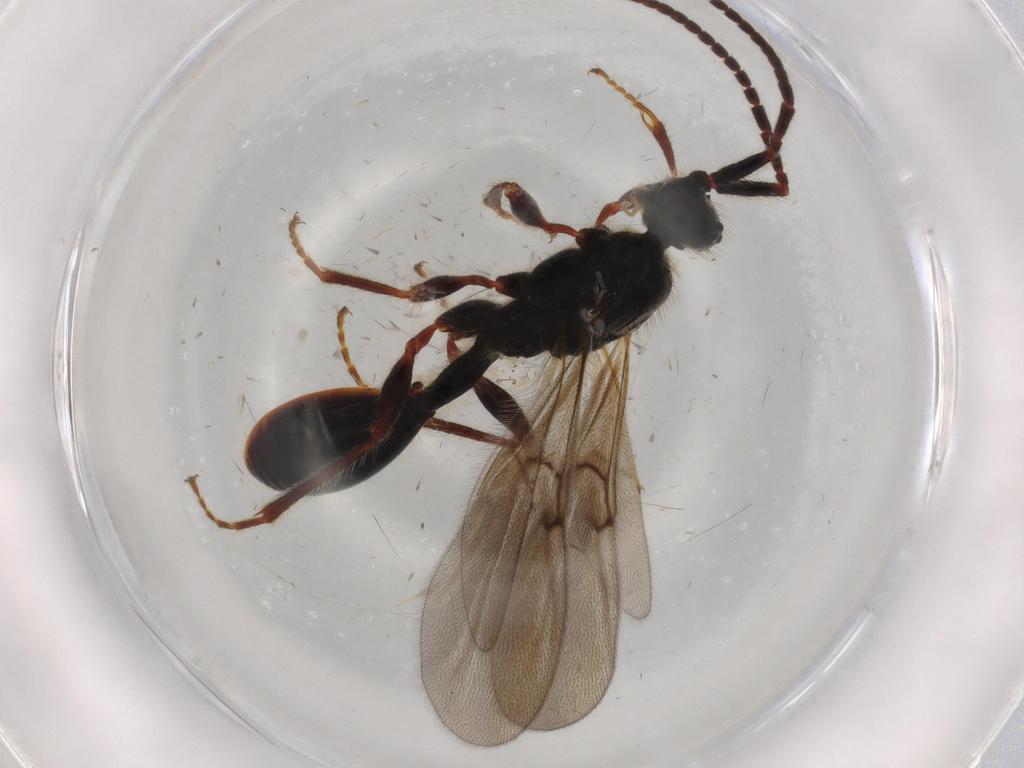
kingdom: Animalia
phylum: Arthropoda
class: Insecta
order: Hymenoptera
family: Diapriidae
